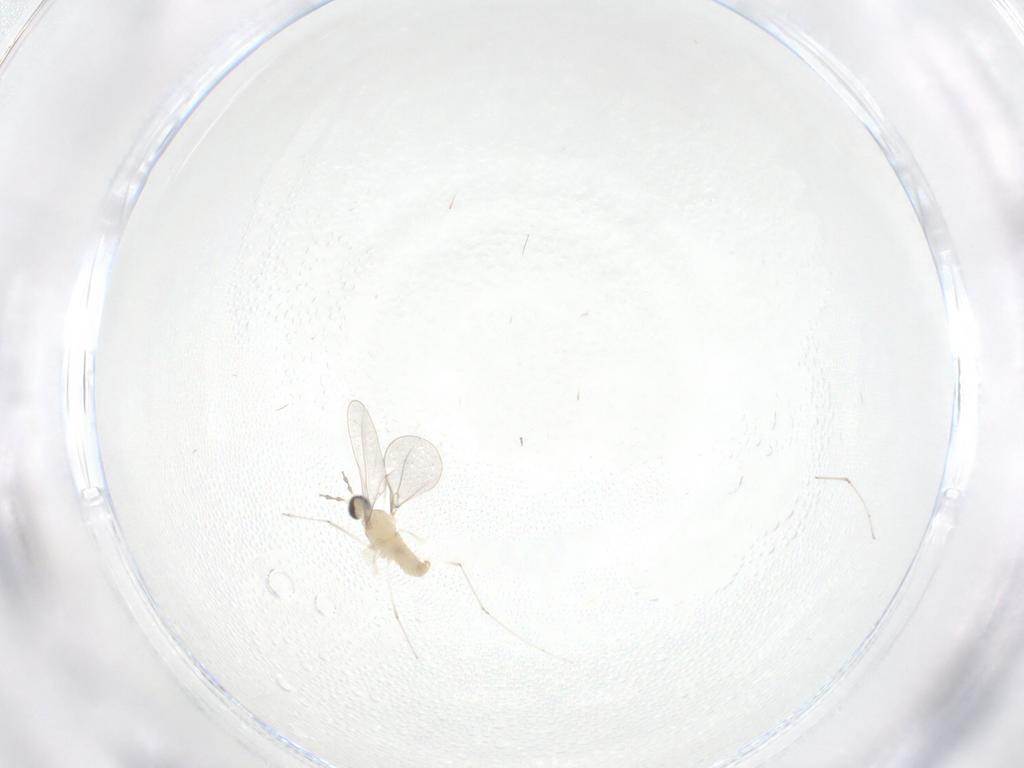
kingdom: Animalia
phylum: Arthropoda
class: Insecta
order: Diptera
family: Cecidomyiidae
